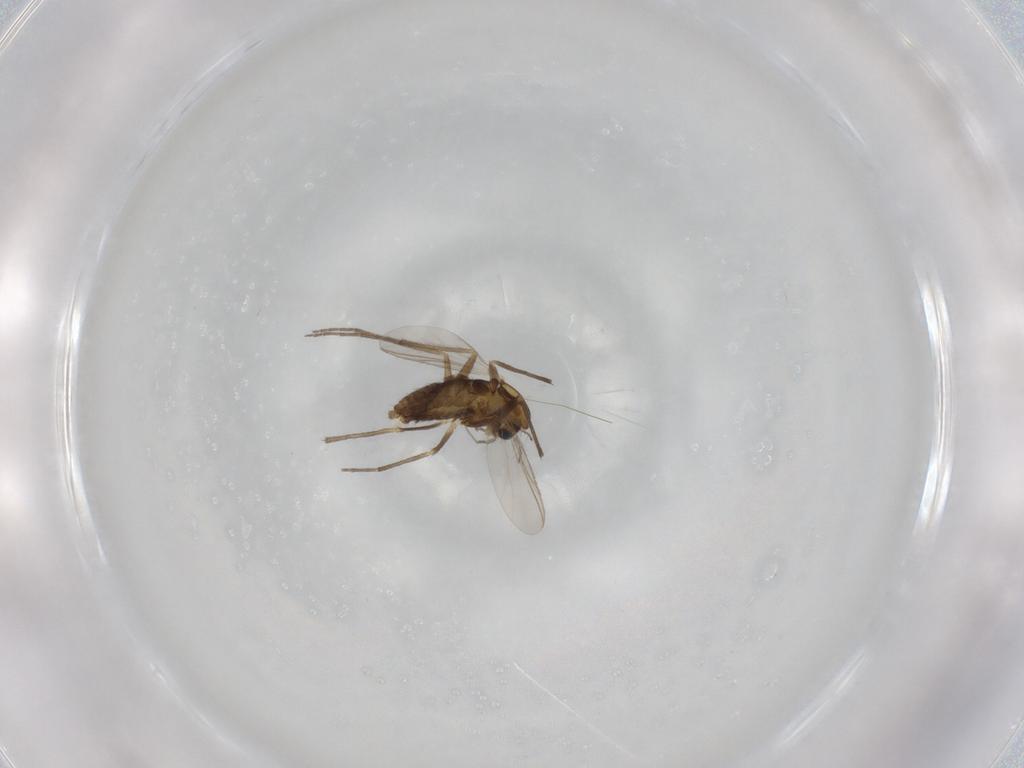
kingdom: Animalia
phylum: Arthropoda
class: Insecta
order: Diptera
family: Chironomidae
